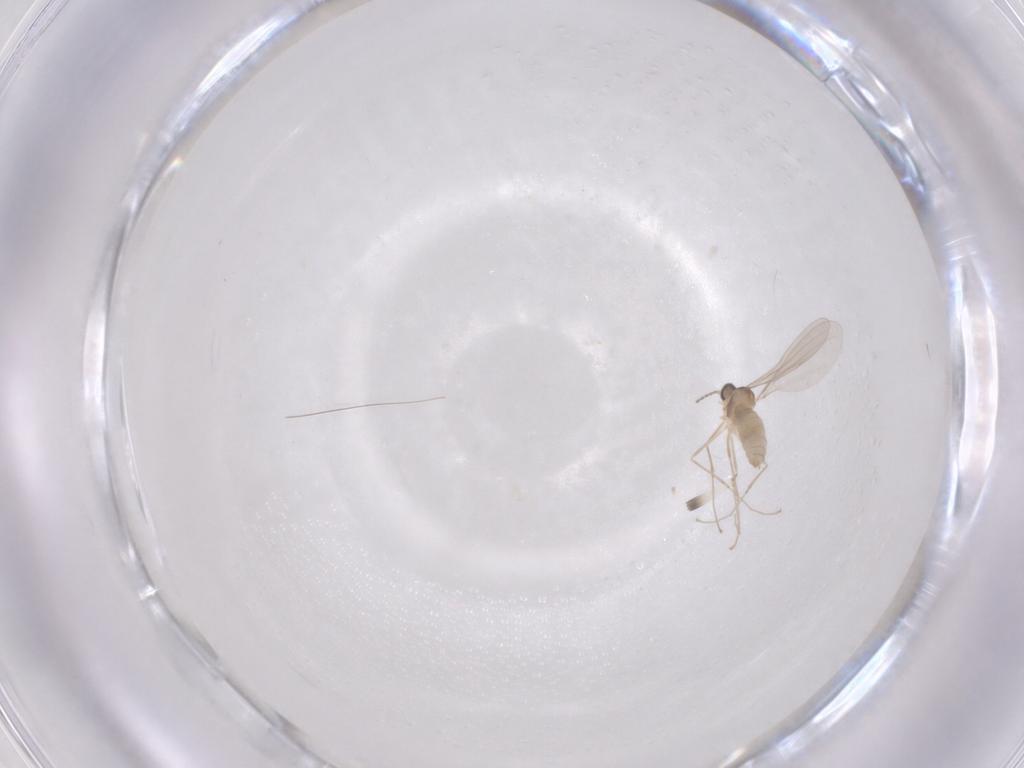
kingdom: Animalia
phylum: Arthropoda
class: Insecta
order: Diptera
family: Cecidomyiidae
